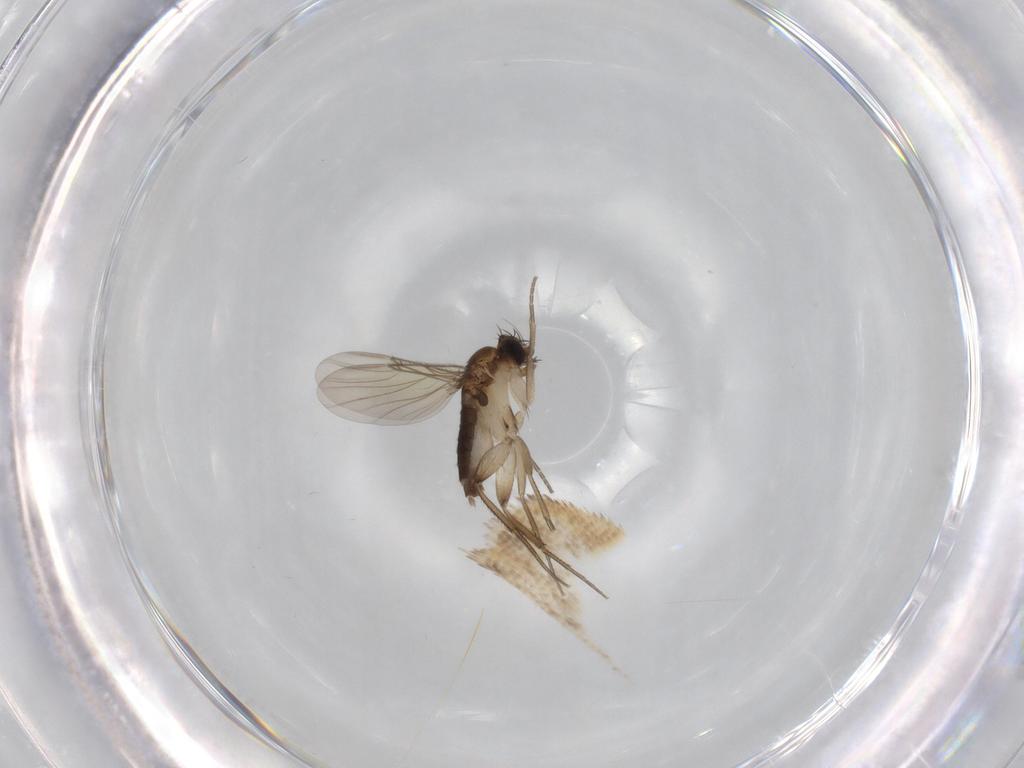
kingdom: Animalia
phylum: Arthropoda
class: Insecta
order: Diptera
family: Phoridae
